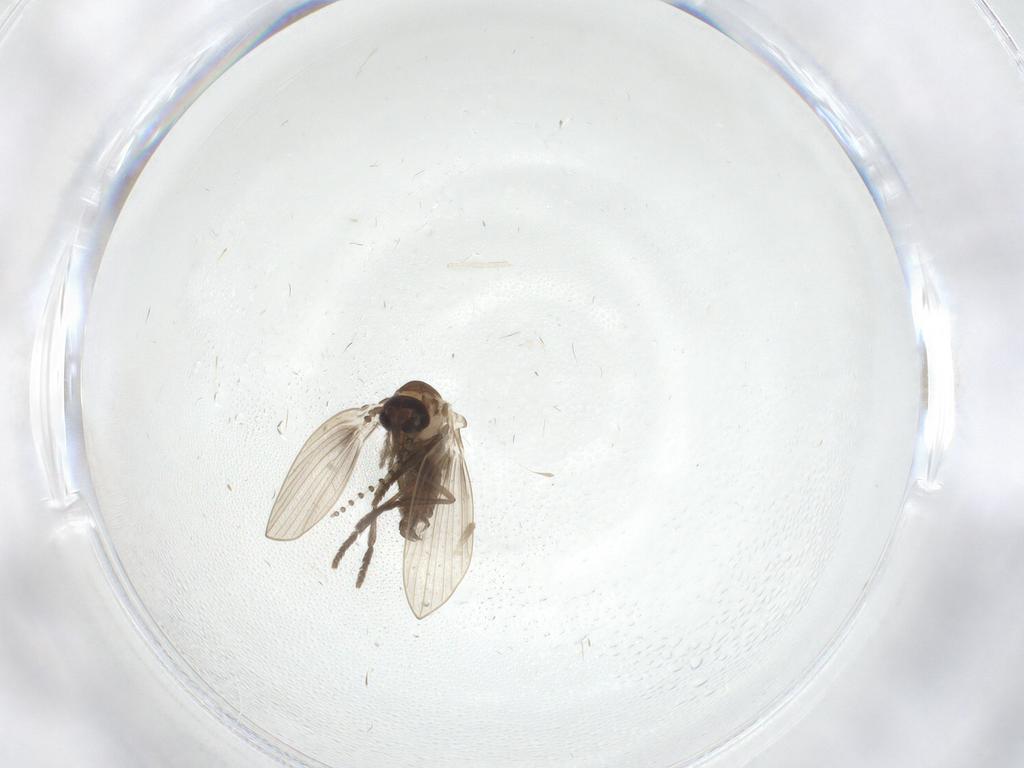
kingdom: Animalia
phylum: Arthropoda
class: Insecta
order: Diptera
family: Psychodidae
